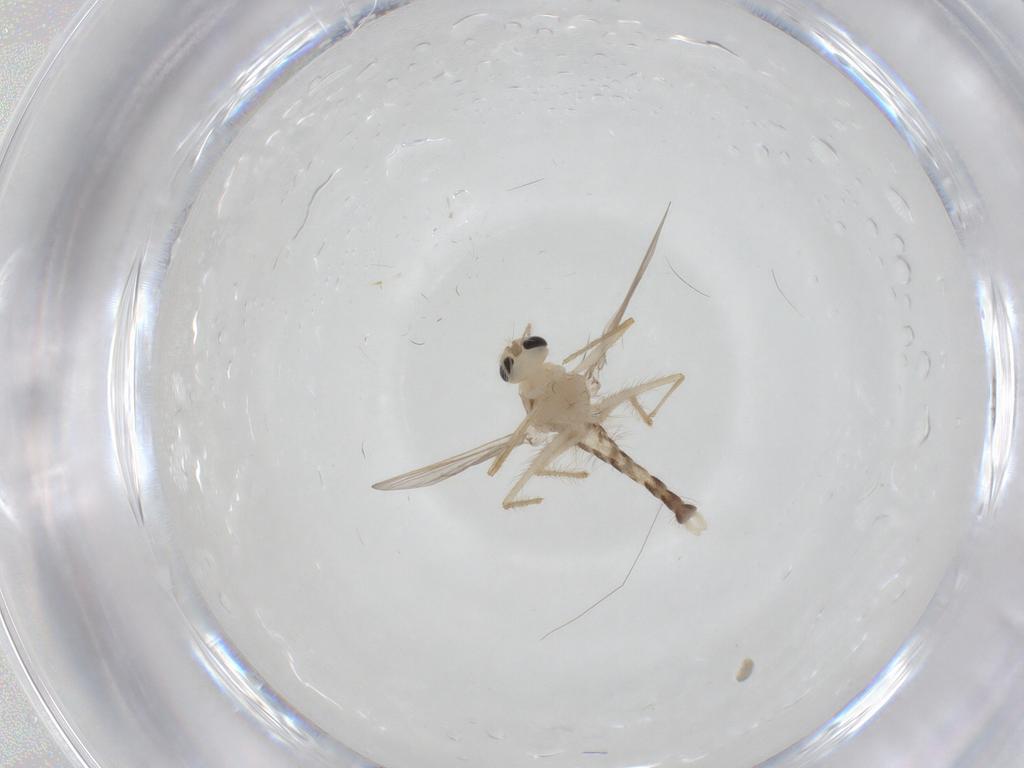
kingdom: Animalia
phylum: Arthropoda
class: Insecta
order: Diptera
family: Chironomidae
